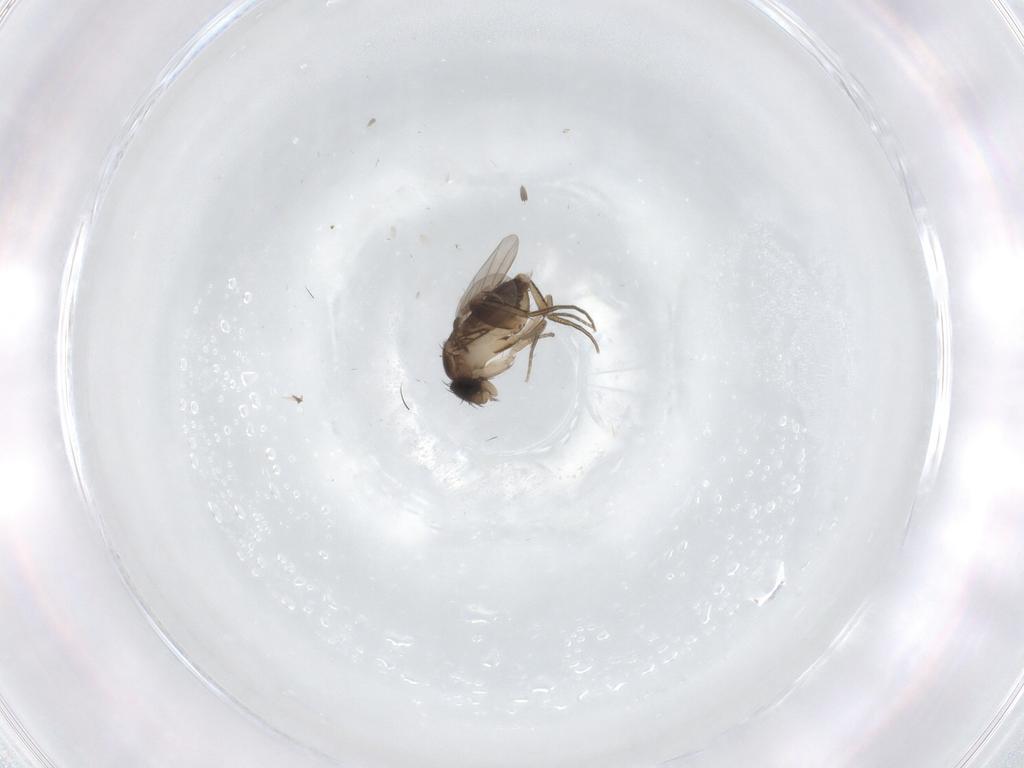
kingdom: Animalia
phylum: Arthropoda
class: Insecta
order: Diptera
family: Phoridae
